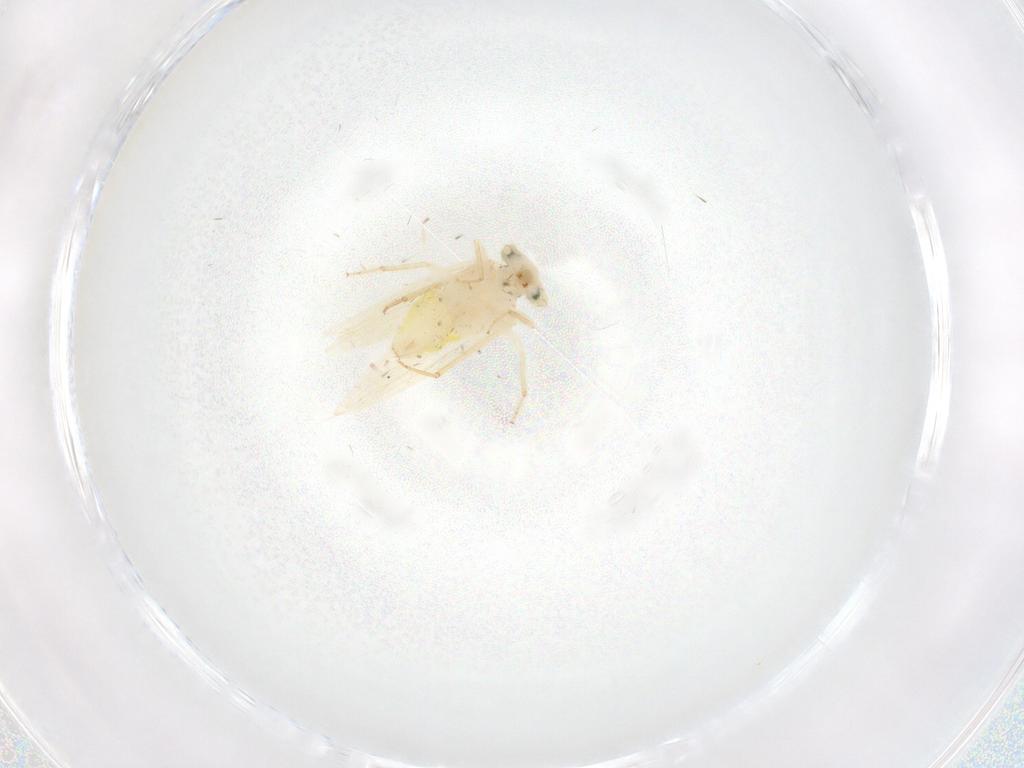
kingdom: Animalia
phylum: Arthropoda
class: Insecta
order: Psocodea
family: Lepidopsocidae
